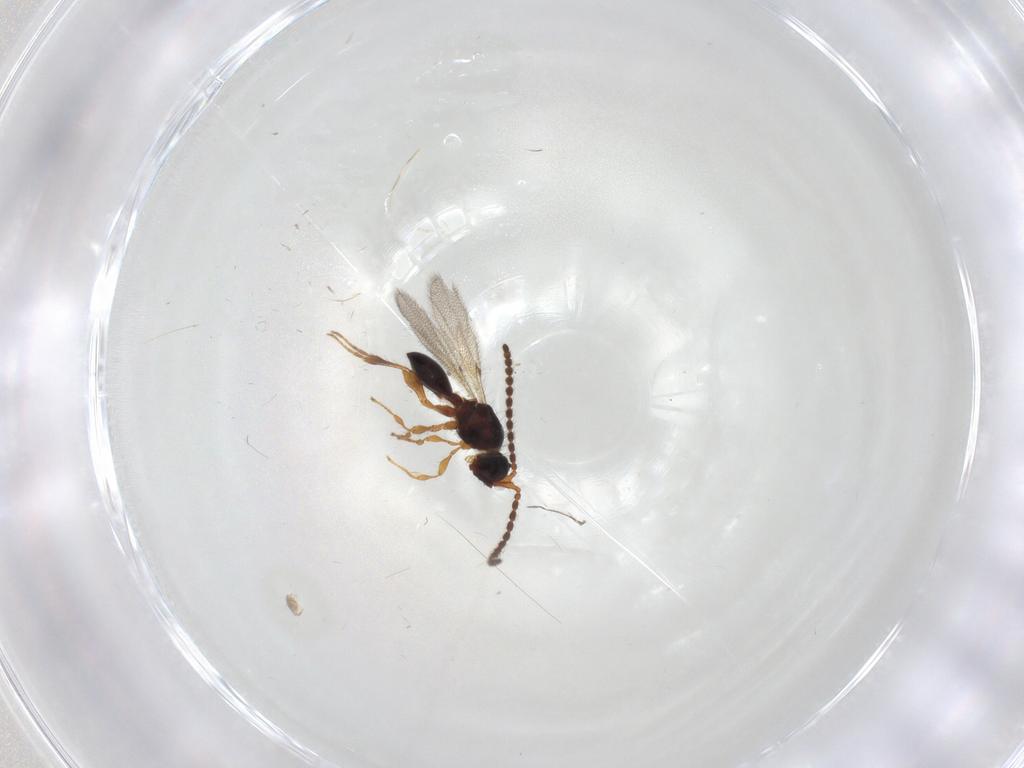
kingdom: Animalia
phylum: Arthropoda
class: Insecta
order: Hymenoptera
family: Diapriidae
